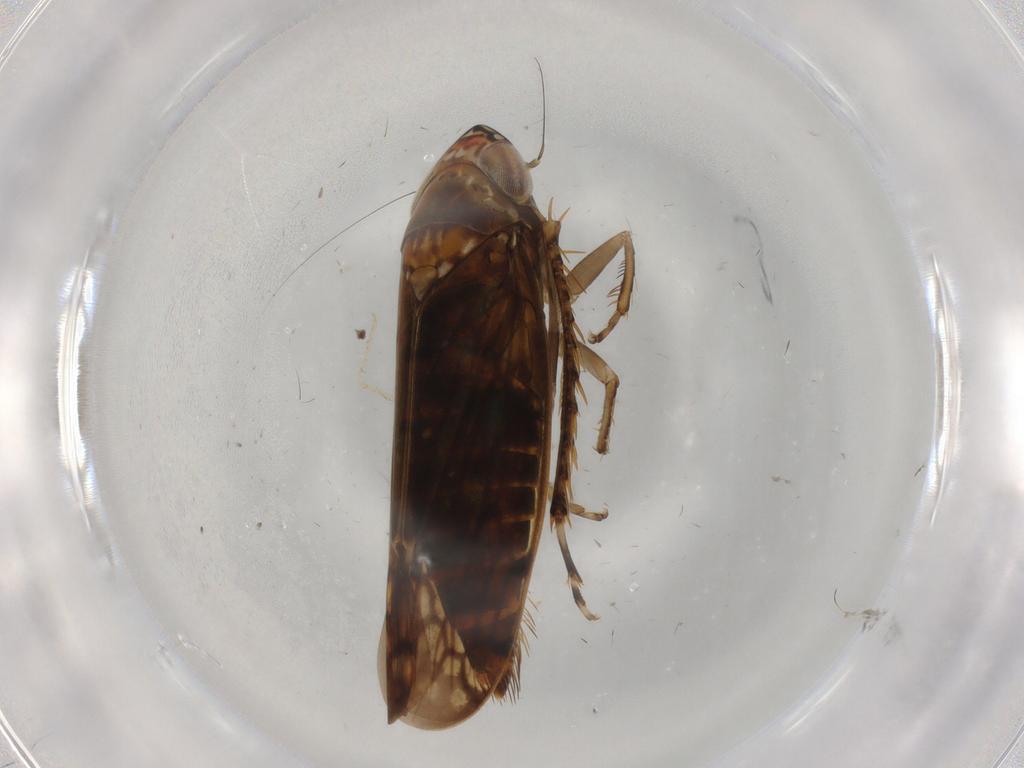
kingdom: Animalia
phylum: Arthropoda
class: Insecta
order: Hemiptera
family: Cicadellidae
